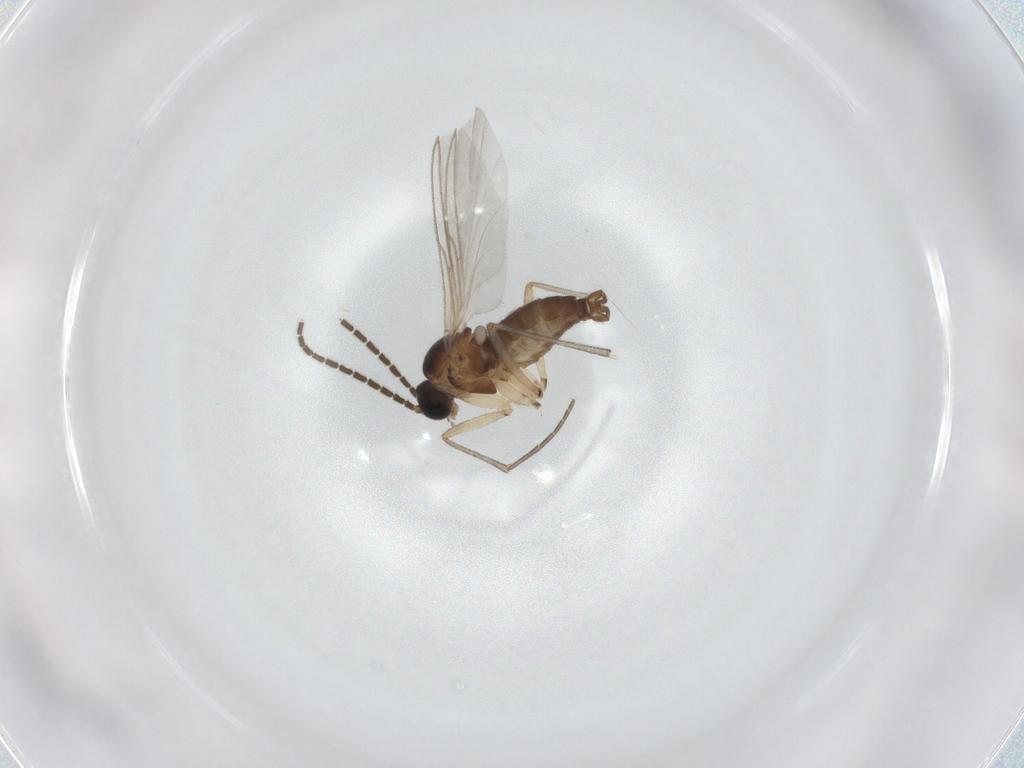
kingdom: Animalia
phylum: Arthropoda
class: Insecta
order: Diptera
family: Sciaridae
